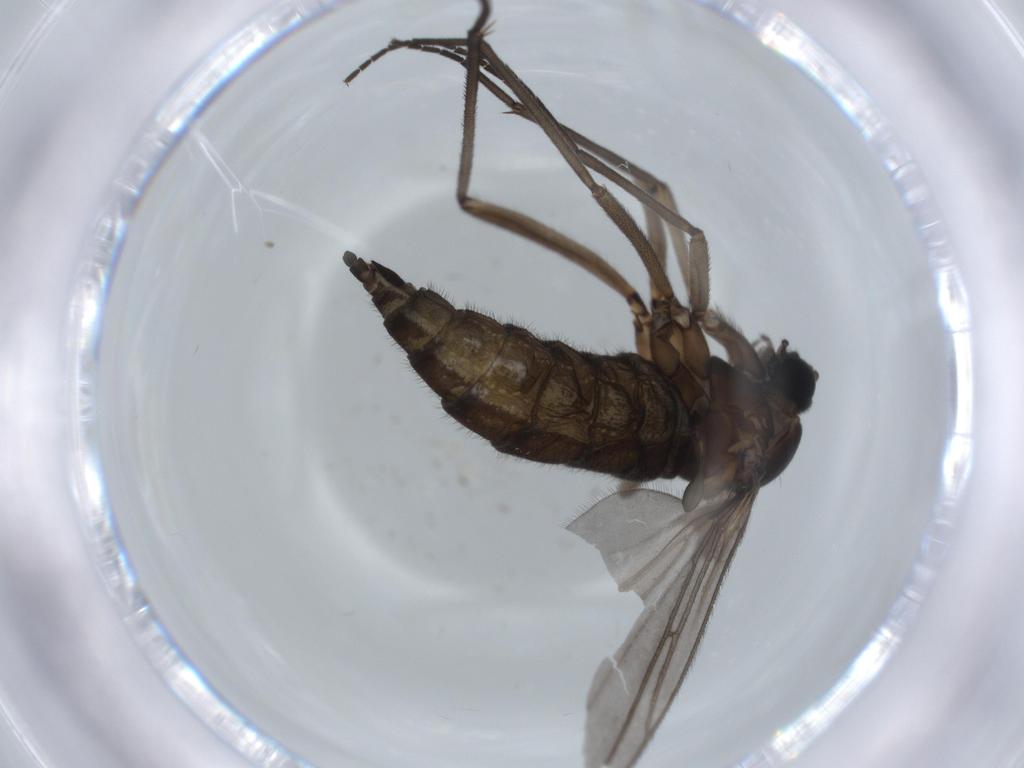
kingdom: Animalia
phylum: Arthropoda
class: Insecta
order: Diptera
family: Sciaridae
